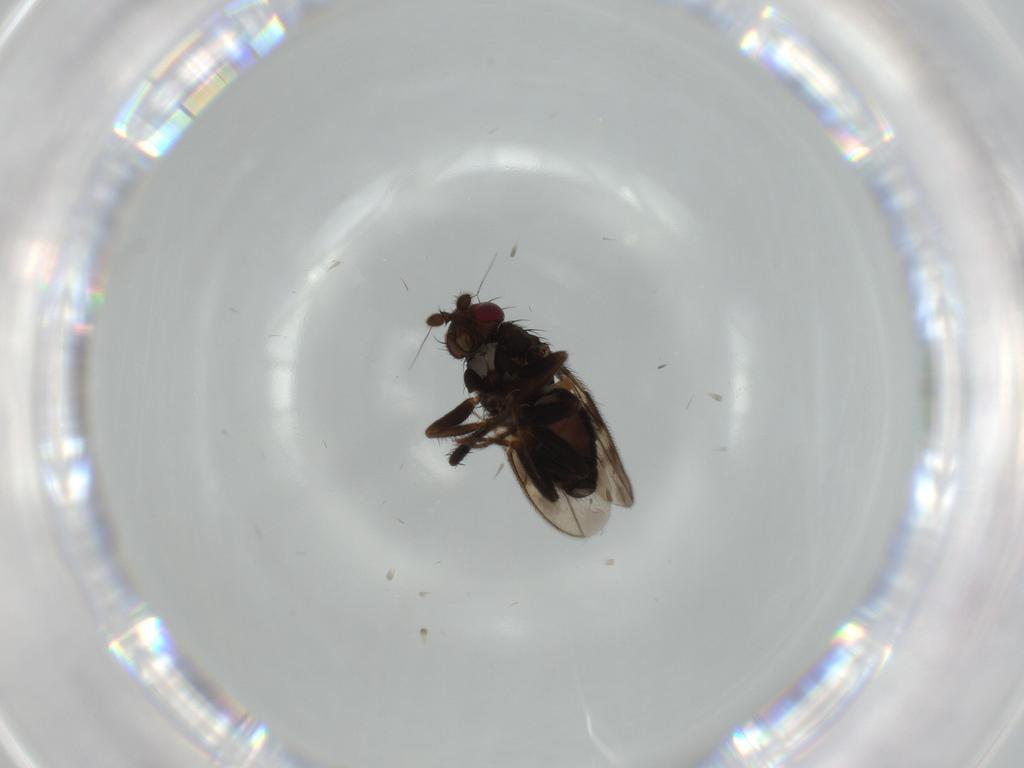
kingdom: Animalia
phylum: Arthropoda
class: Insecta
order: Diptera
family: Sphaeroceridae
